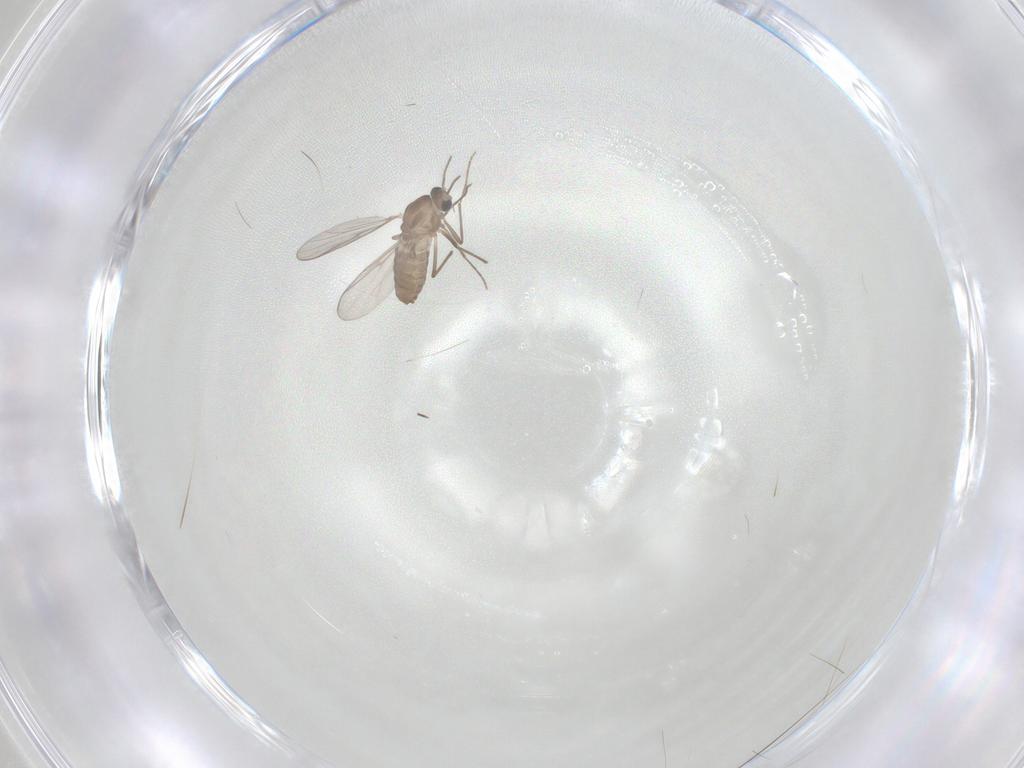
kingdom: Animalia
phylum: Arthropoda
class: Insecta
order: Diptera
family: Chironomidae
